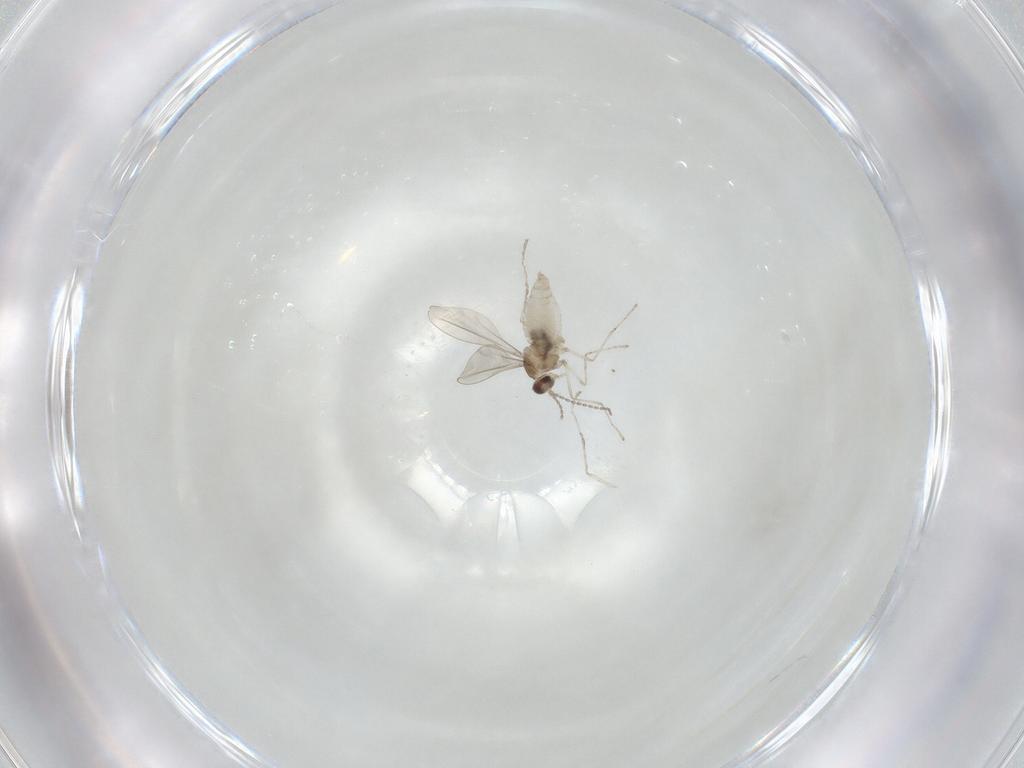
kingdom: Animalia
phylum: Arthropoda
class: Insecta
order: Diptera
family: Cecidomyiidae
